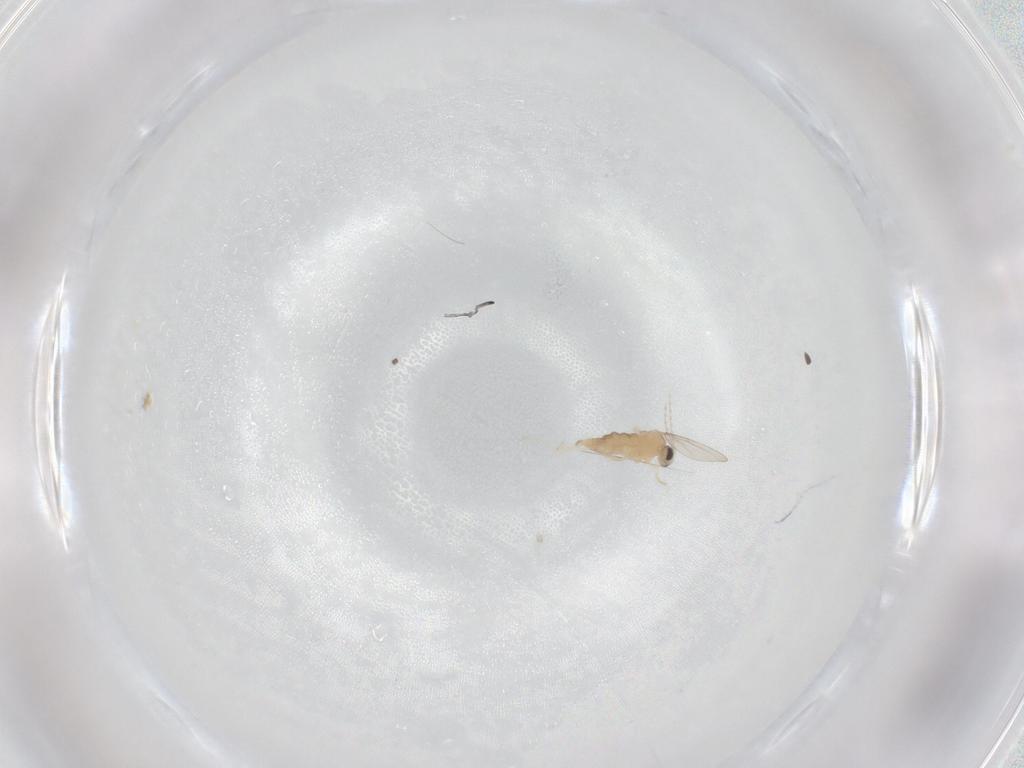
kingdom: Animalia
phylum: Arthropoda
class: Insecta
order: Diptera
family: Cecidomyiidae
